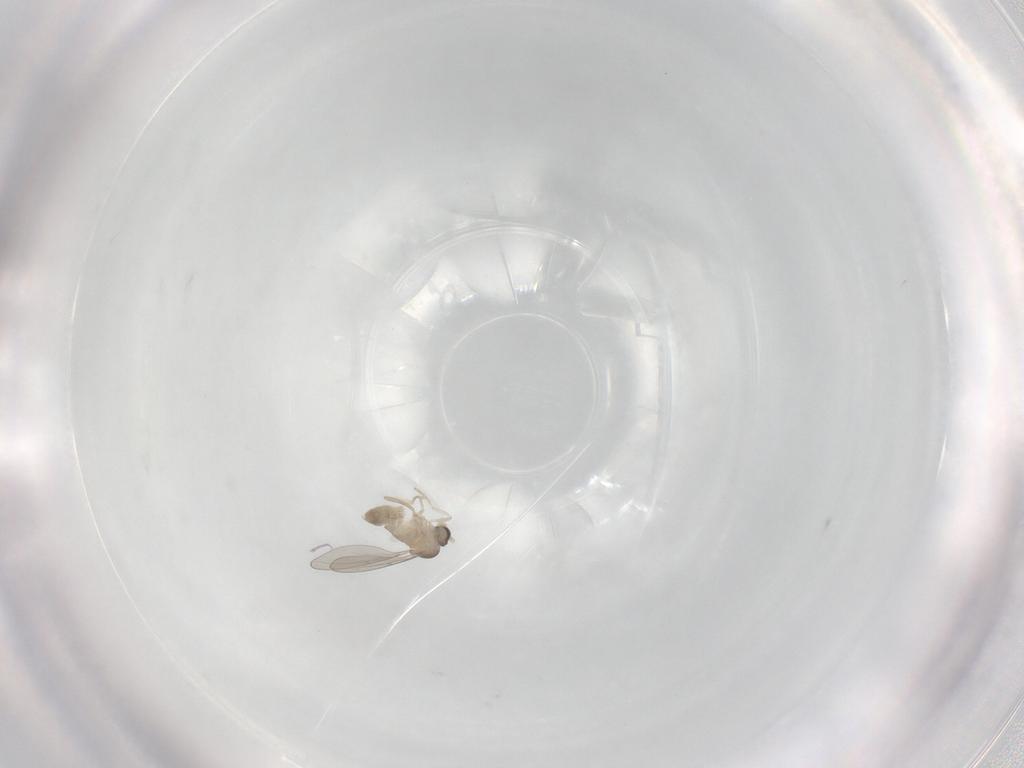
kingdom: Animalia
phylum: Arthropoda
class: Insecta
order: Diptera
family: Cecidomyiidae
